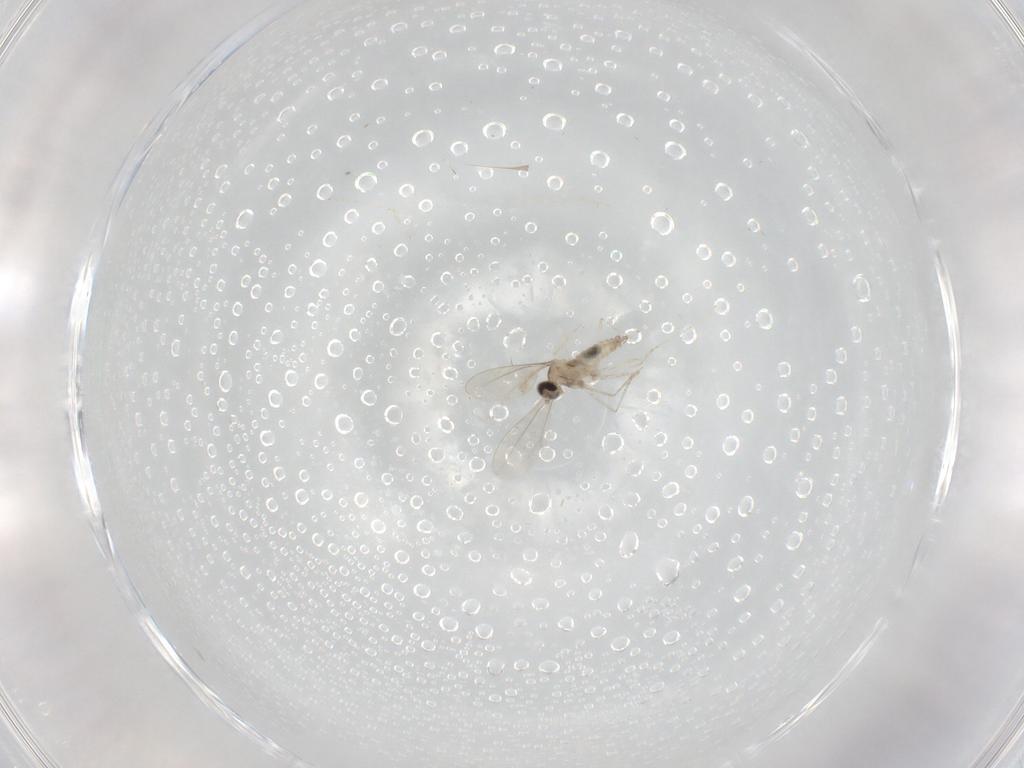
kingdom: Animalia
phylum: Arthropoda
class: Insecta
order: Diptera
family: Cecidomyiidae
